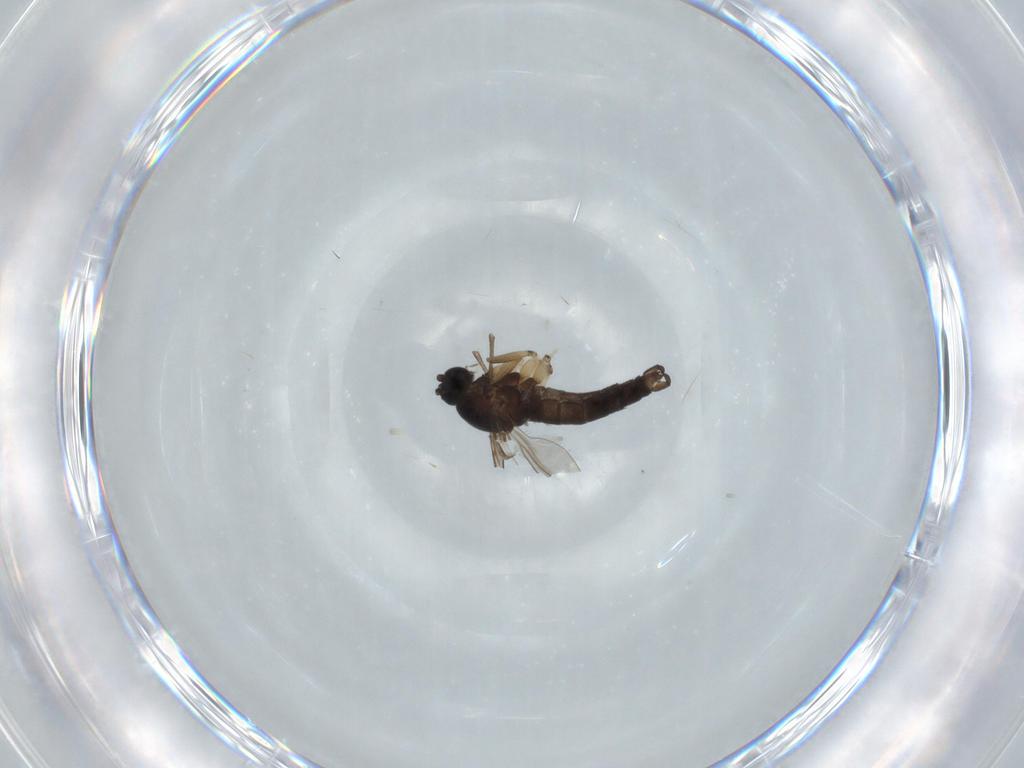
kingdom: Animalia
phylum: Arthropoda
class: Insecta
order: Diptera
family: Sciaridae
